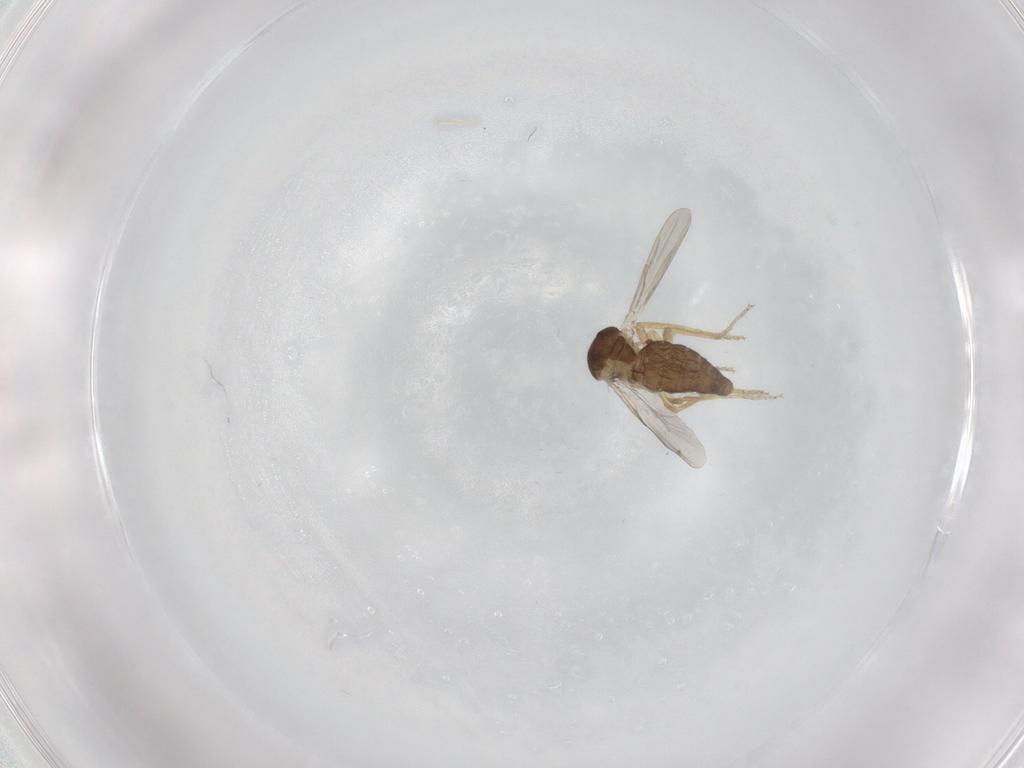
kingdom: Animalia
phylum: Arthropoda
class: Insecta
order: Diptera
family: Ceratopogonidae
